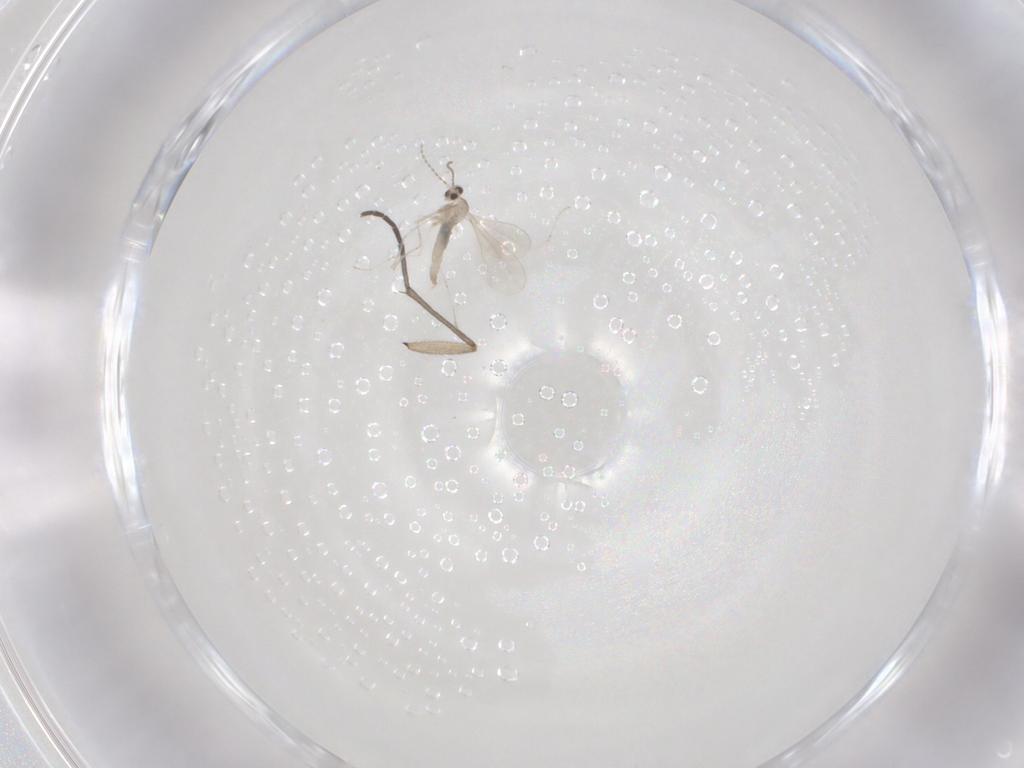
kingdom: Animalia
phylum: Arthropoda
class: Insecta
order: Diptera
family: Sciaridae
